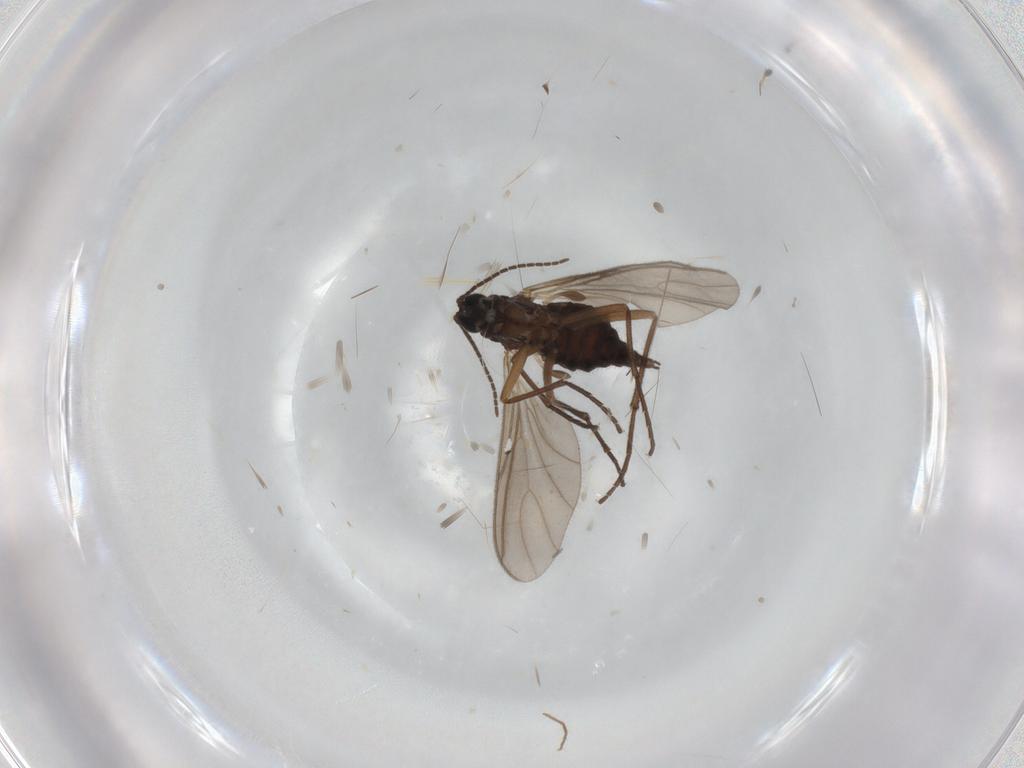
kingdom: Animalia
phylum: Arthropoda
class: Insecta
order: Diptera
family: Sciaridae
